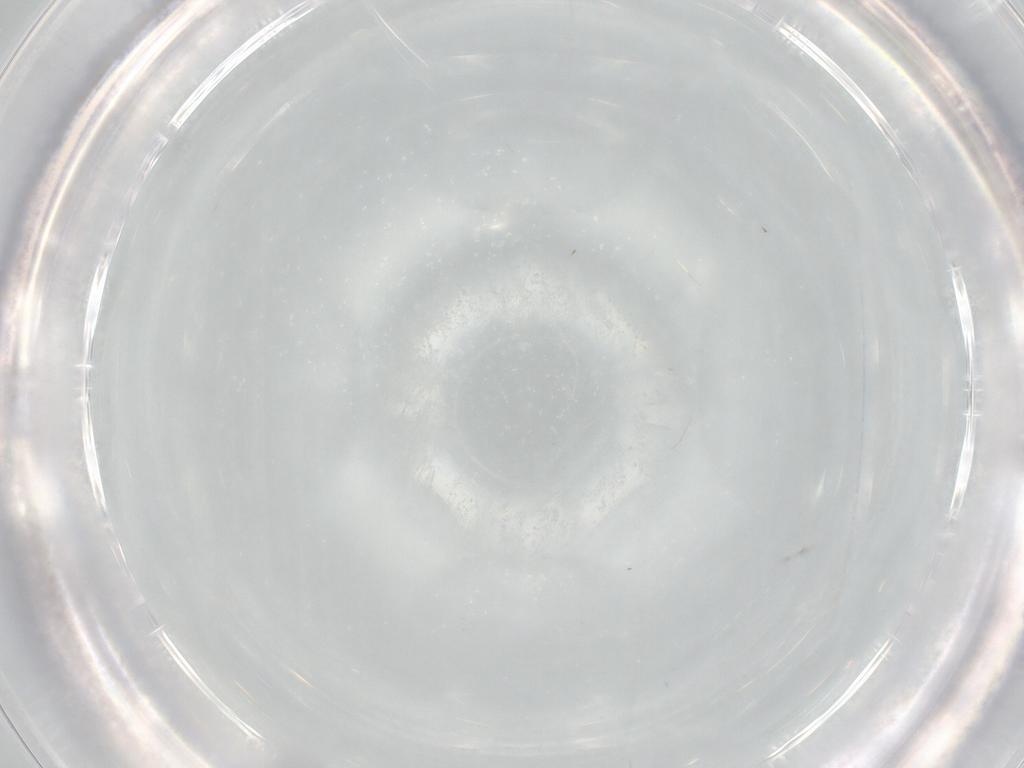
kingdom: Animalia
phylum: Arthropoda
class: Collembola
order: Entomobryomorpha
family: Entomobryidae
